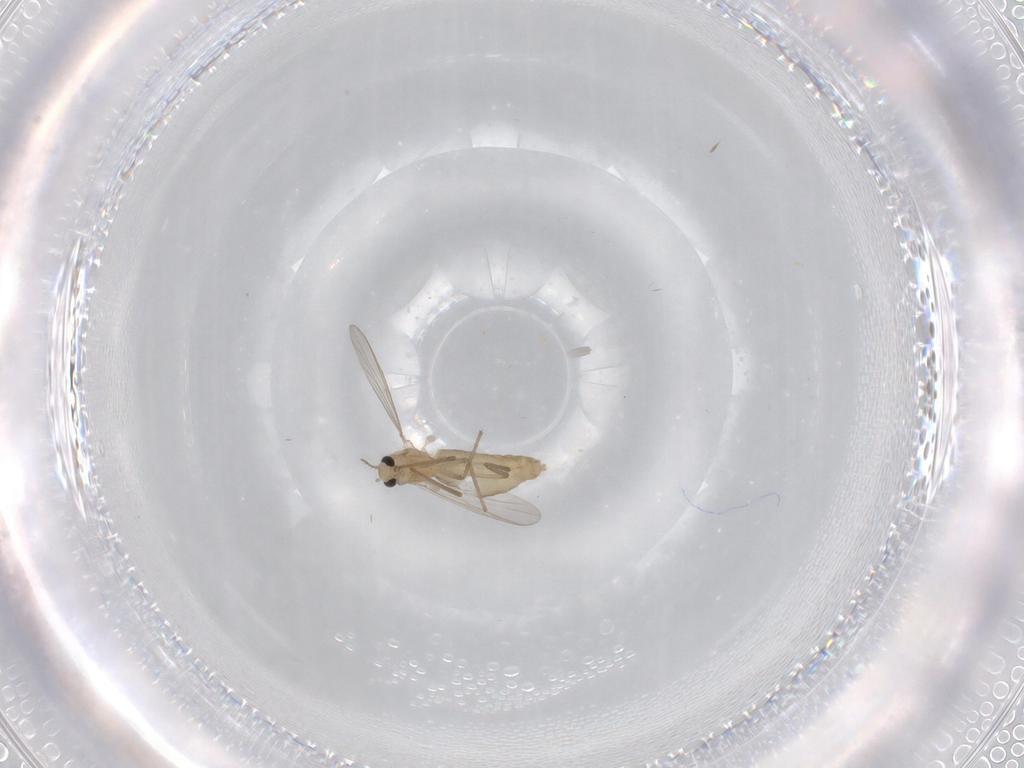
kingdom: Animalia
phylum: Arthropoda
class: Insecta
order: Diptera
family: Chironomidae
